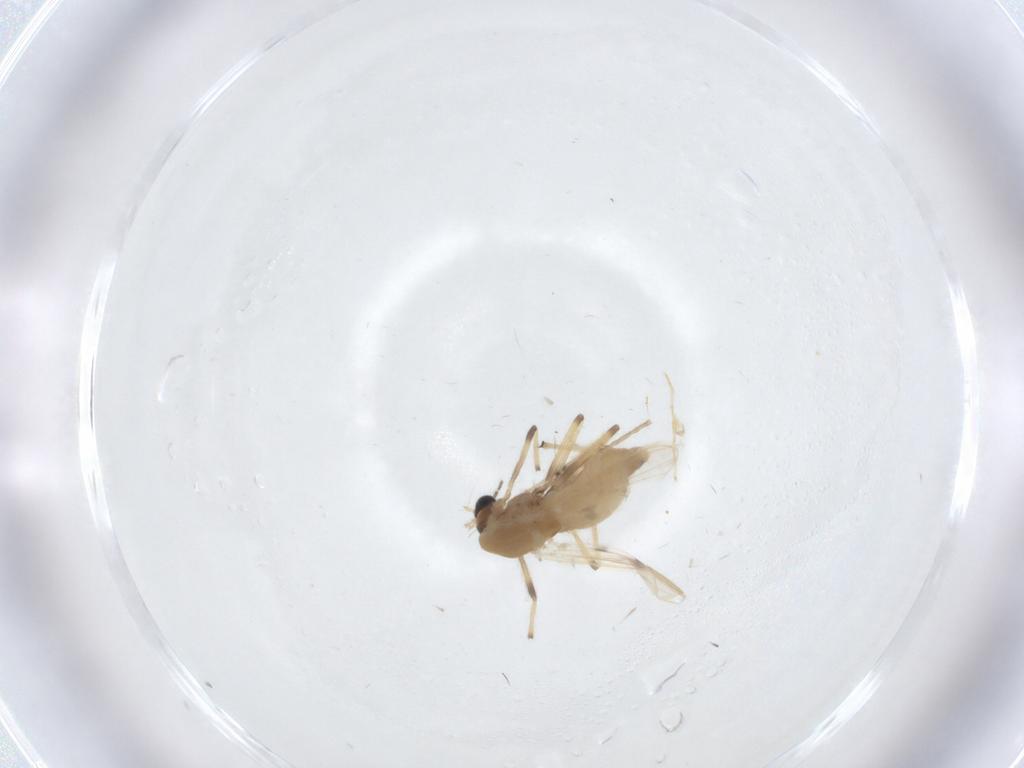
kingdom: Animalia
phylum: Arthropoda
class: Insecta
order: Diptera
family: Chironomidae
